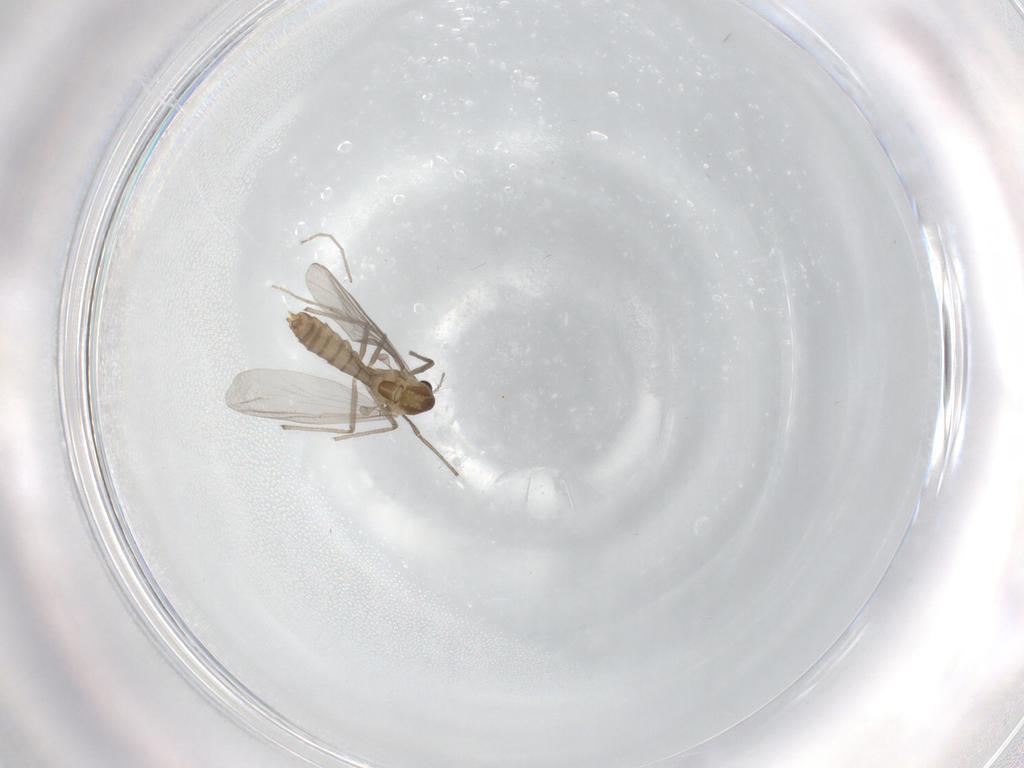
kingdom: Animalia
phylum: Arthropoda
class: Insecta
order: Diptera
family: Chironomidae
